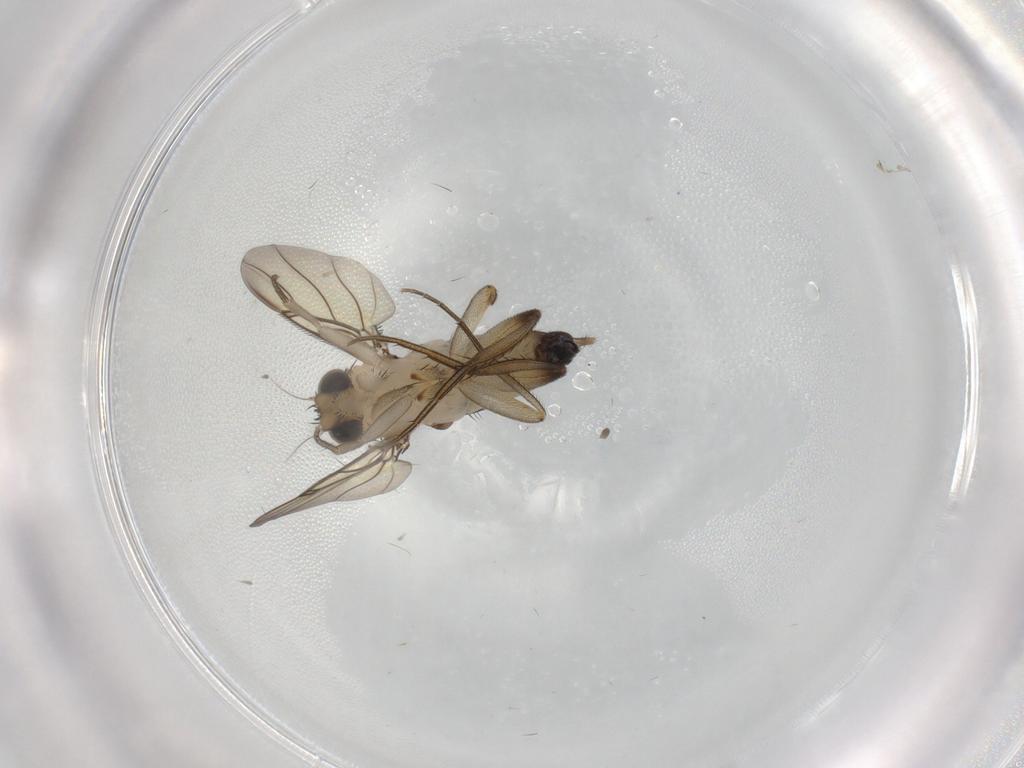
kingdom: Animalia
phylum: Arthropoda
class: Insecta
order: Diptera
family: Phoridae
